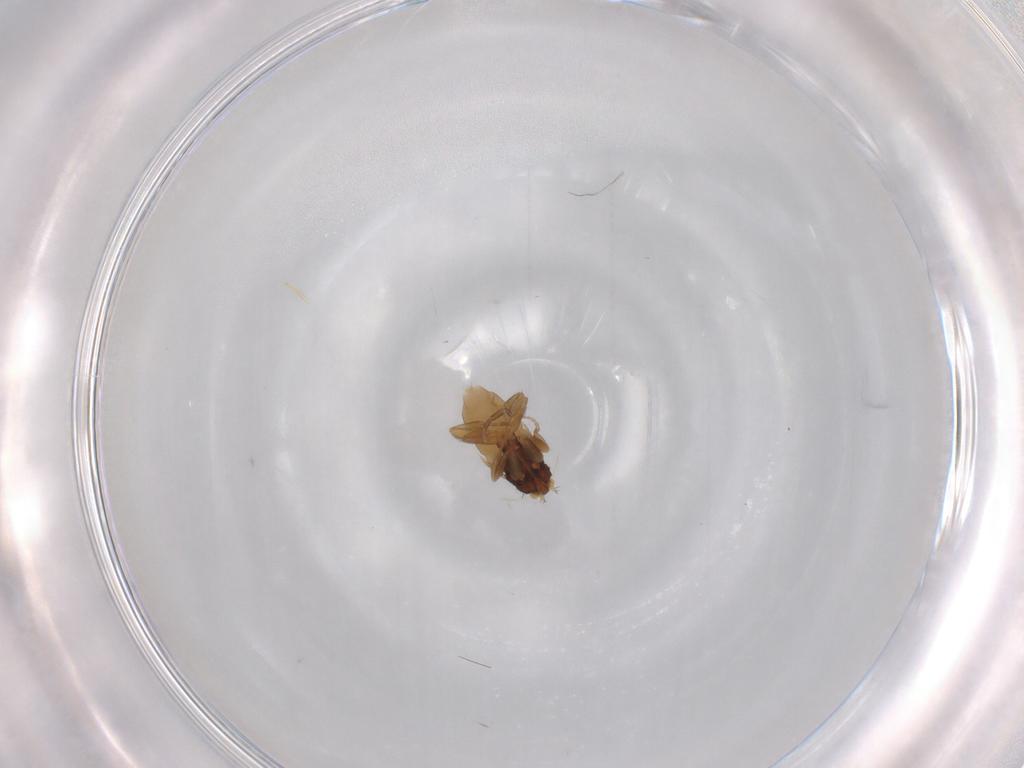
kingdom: Animalia
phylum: Arthropoda
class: Insecta
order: Diptera
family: Phoridae
